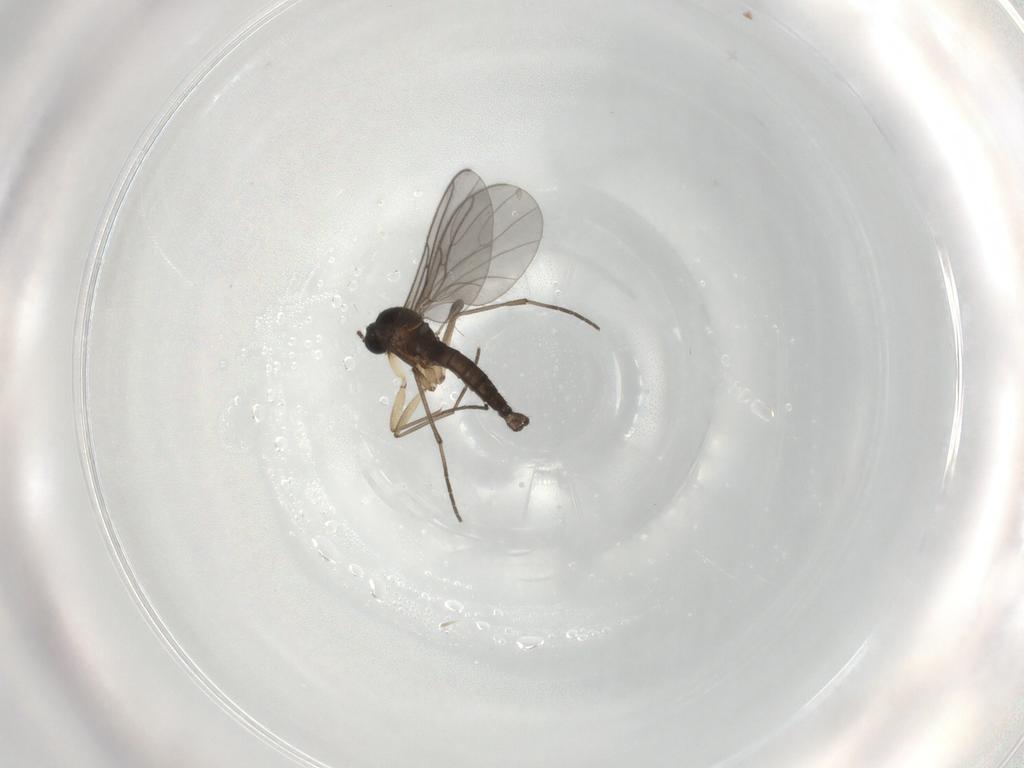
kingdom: Animalia
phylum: Arthropoda
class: Insecta
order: Diptera
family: Sciaridae
